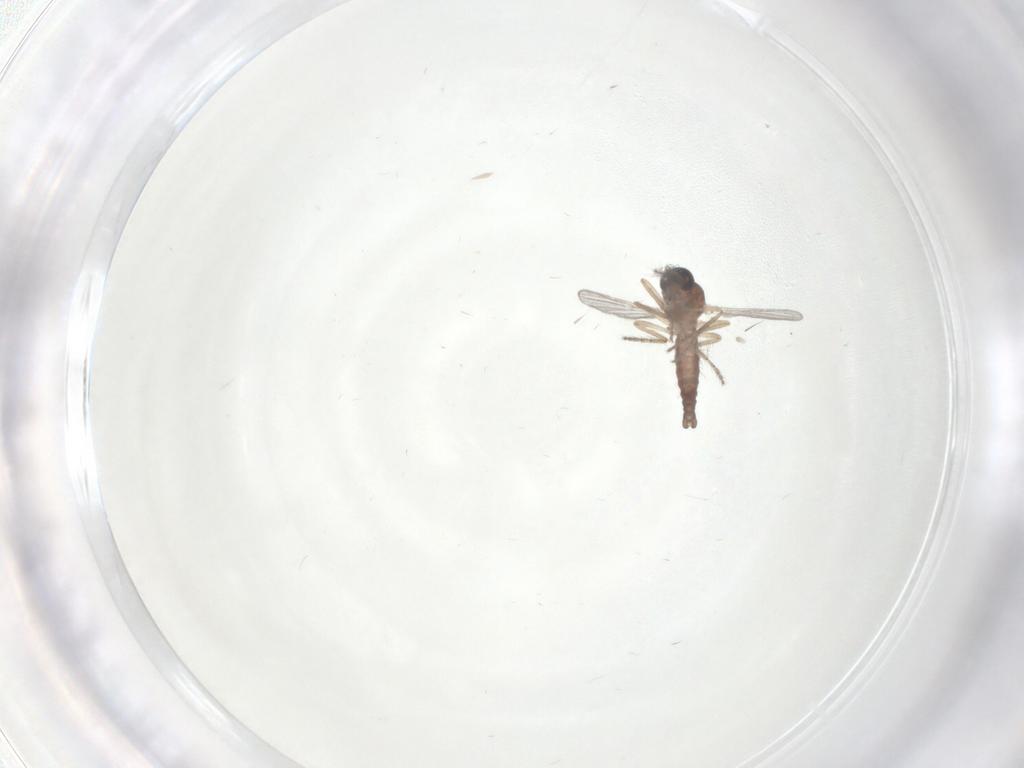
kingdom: Animalia
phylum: Arthropoda
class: Insecta
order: Diptera
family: Ceratopogonidae
